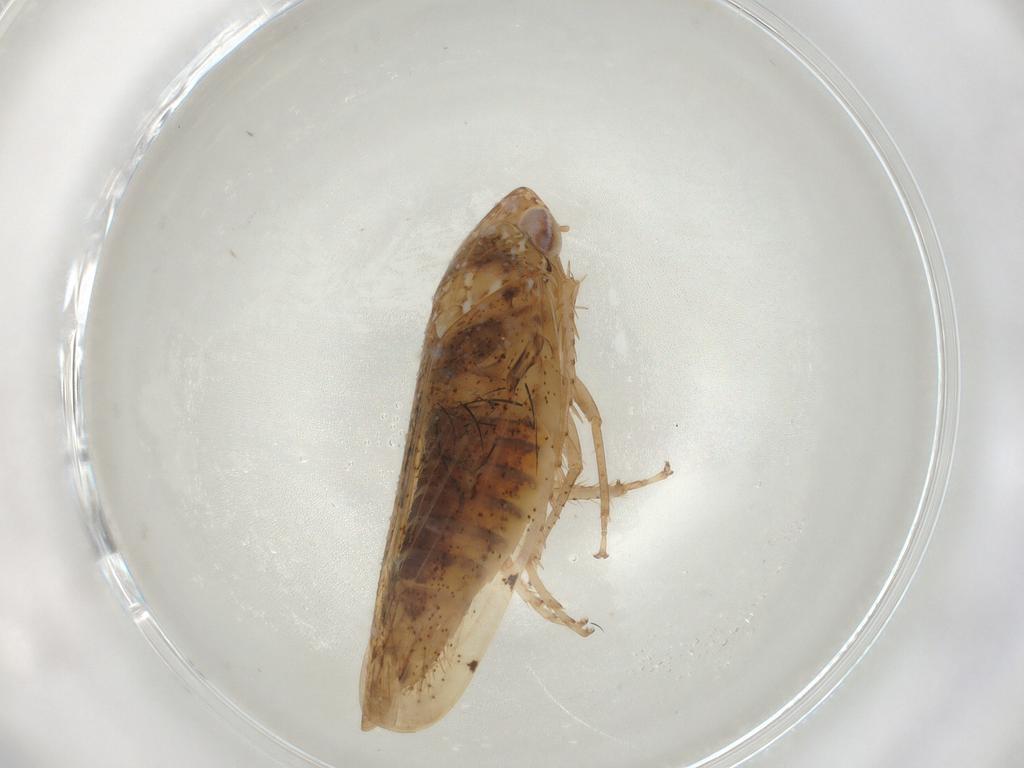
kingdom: Animalia
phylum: Arthropoda
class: Insecta
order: Hemiptera
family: Cicadellidae
